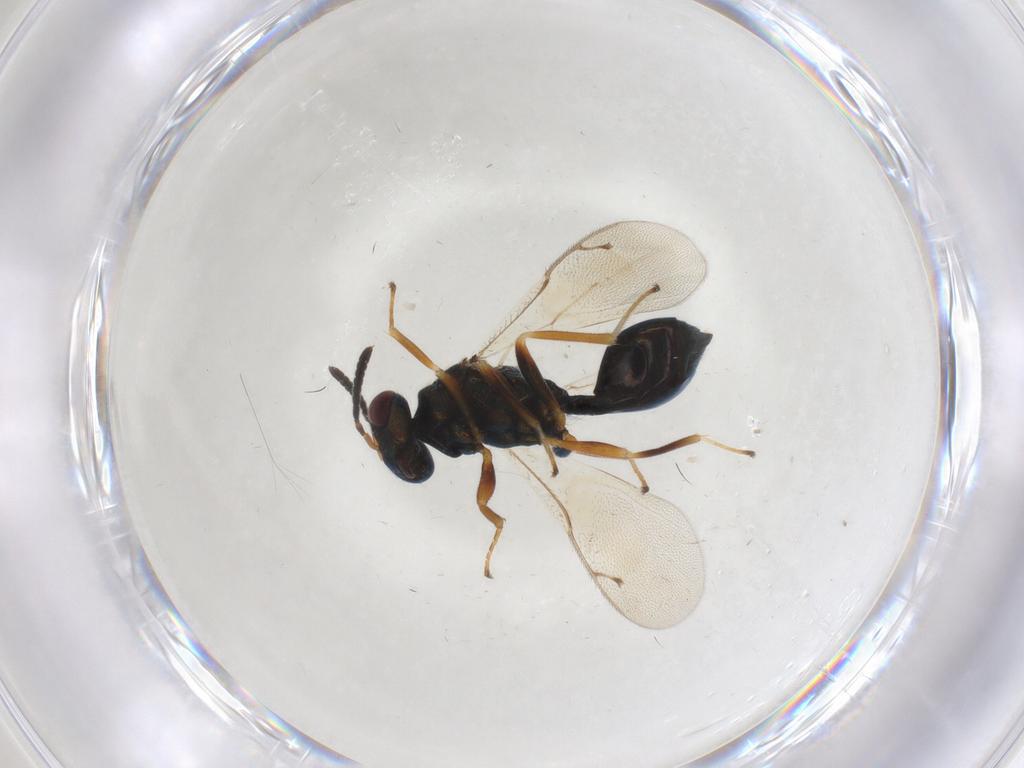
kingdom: Animalia
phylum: Arthropoda
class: Insecta
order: Hymenoptera
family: Pteromalidae
